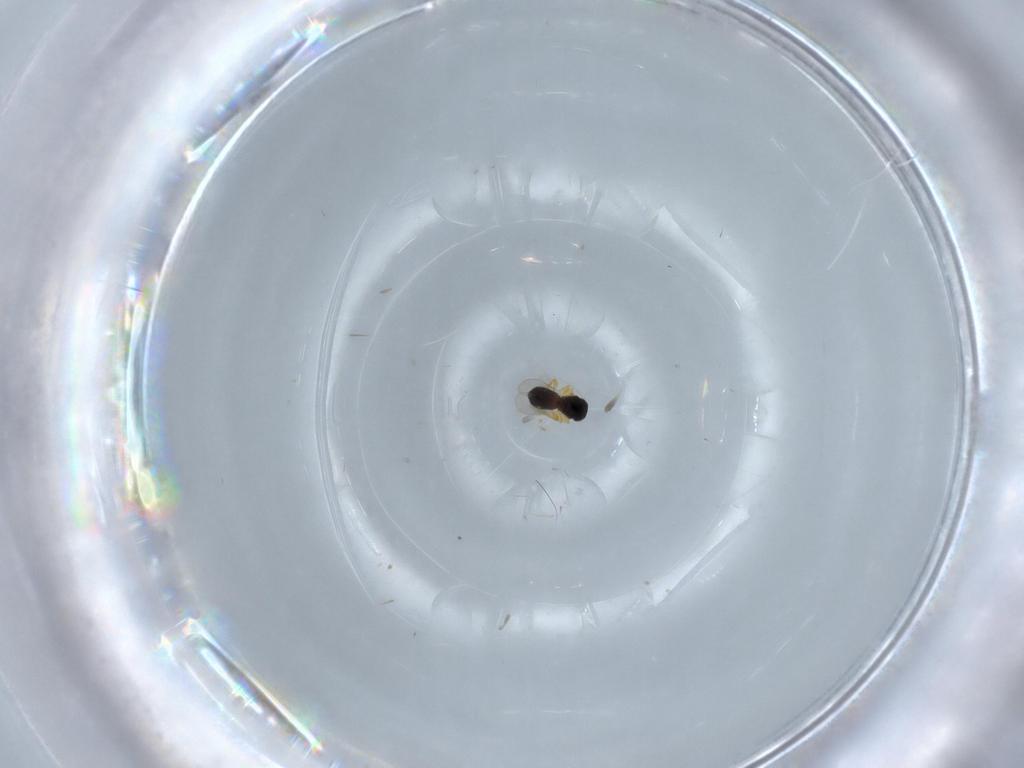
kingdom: Animalia
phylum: Arthropoda
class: Insecta
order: Hymenoptera
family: Platygastridae
